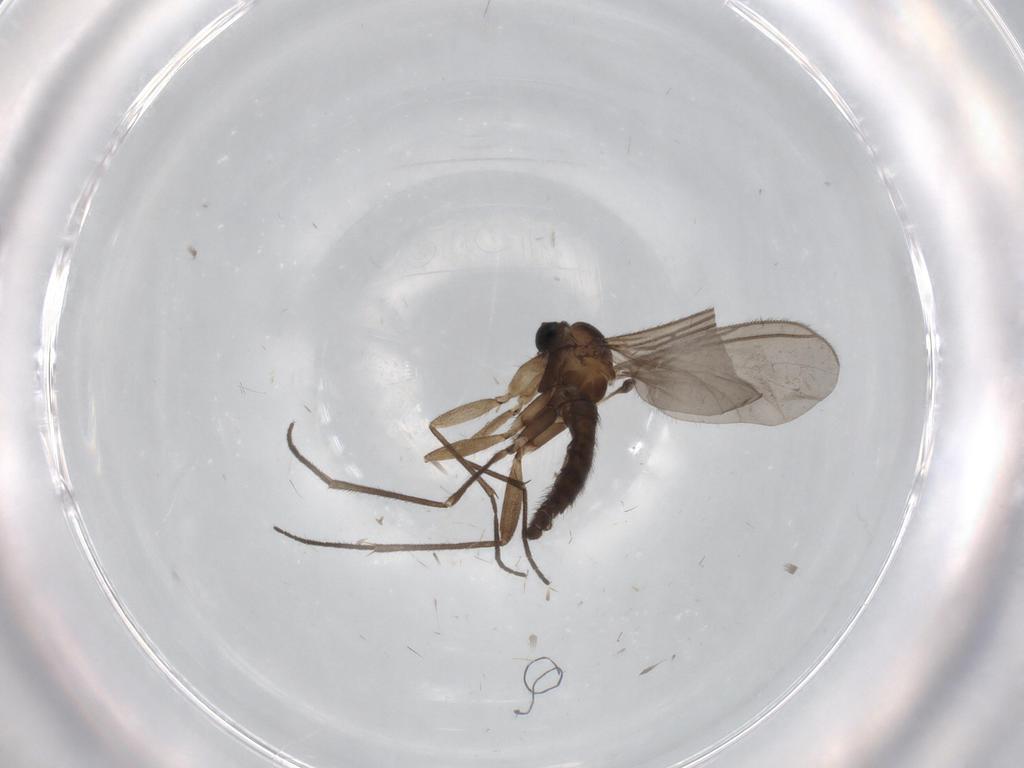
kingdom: Animalia
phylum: Arthropoda
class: Insecta
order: Diptera
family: Sciaridae
